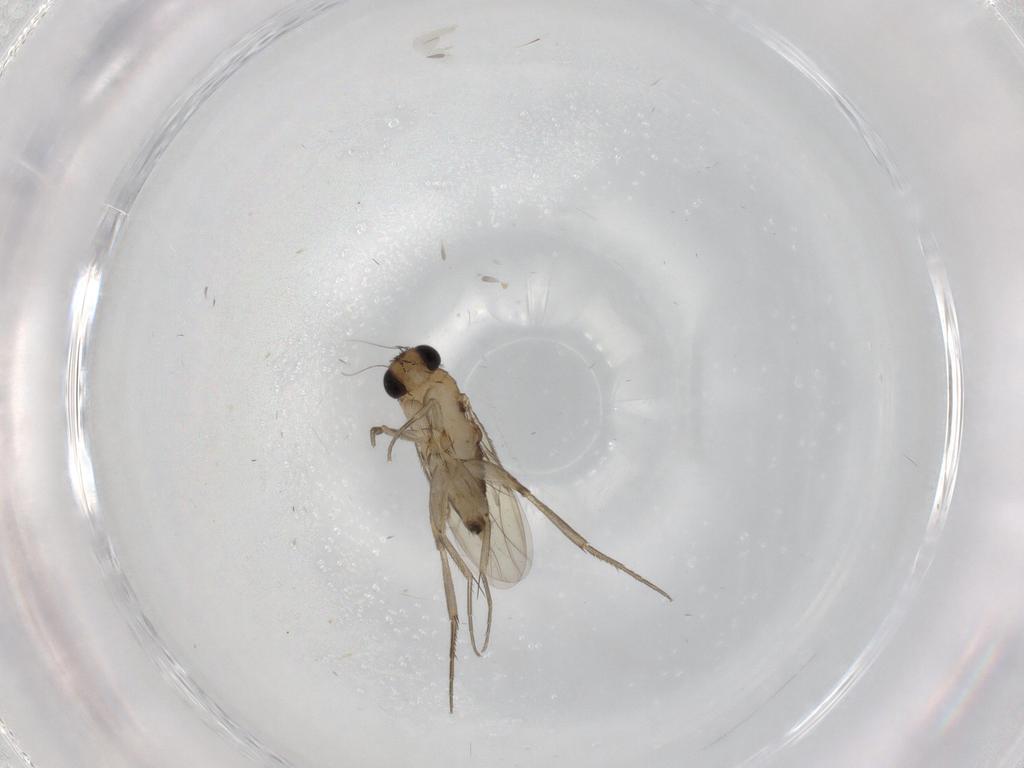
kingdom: Animalia
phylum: Arthropoda
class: Insecta
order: Diptera
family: Phoridae
